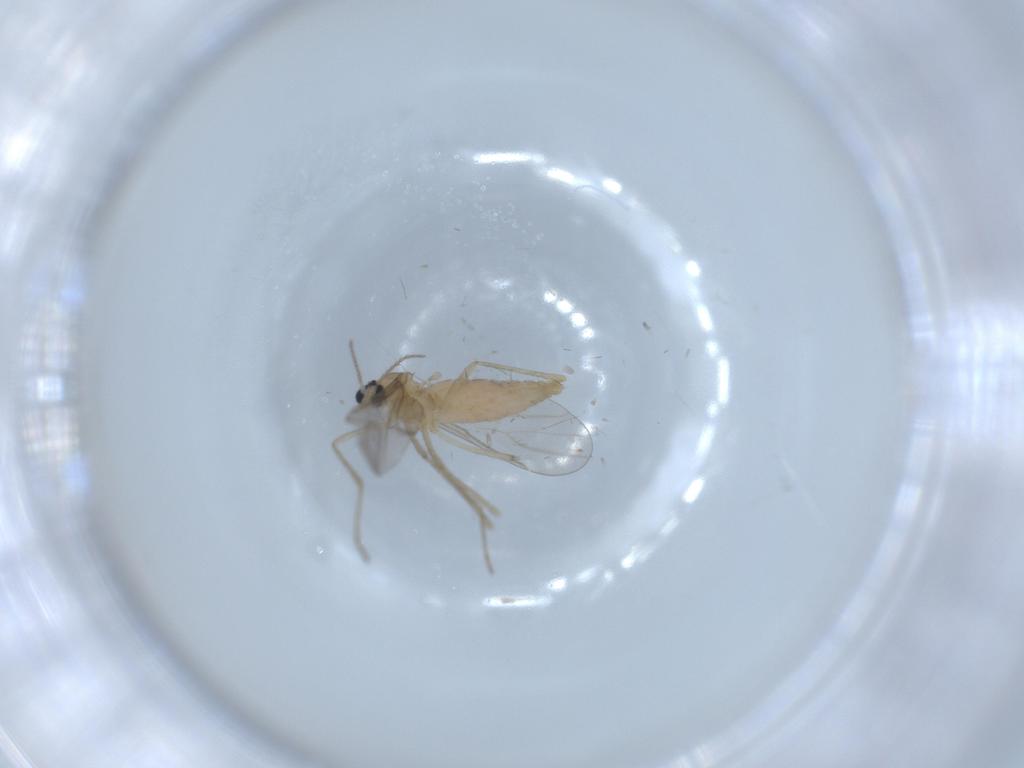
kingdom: Animalia
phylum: Arthropoda
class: Insecta
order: Diptera
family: Cecidomyiidae
